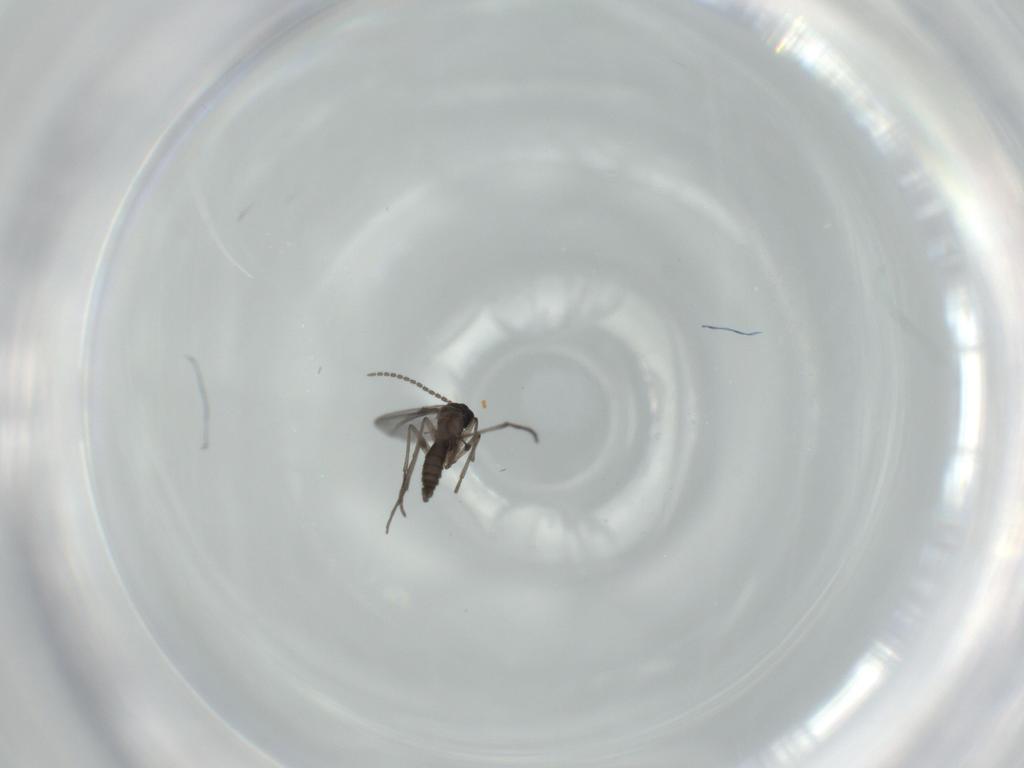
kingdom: Animalia
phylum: Arthropoda
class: Insecta
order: Diptera
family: Sciaridae
